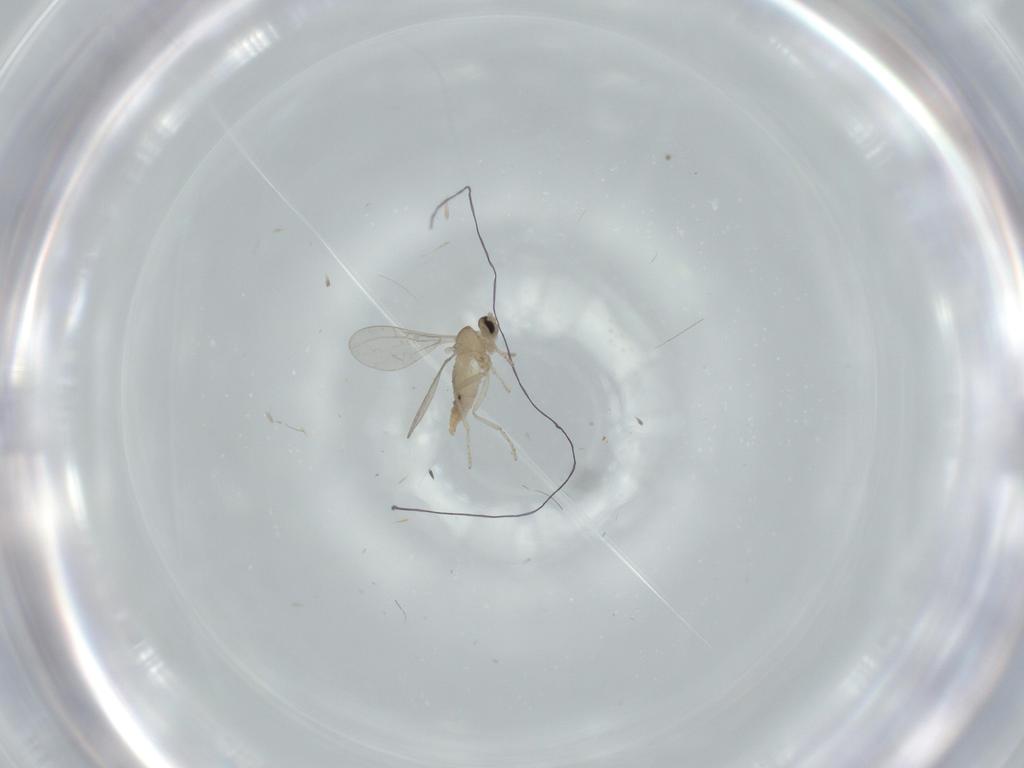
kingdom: Animalia
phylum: Arthropoda
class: Insecta
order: Diptera
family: Cecidomyiidae
